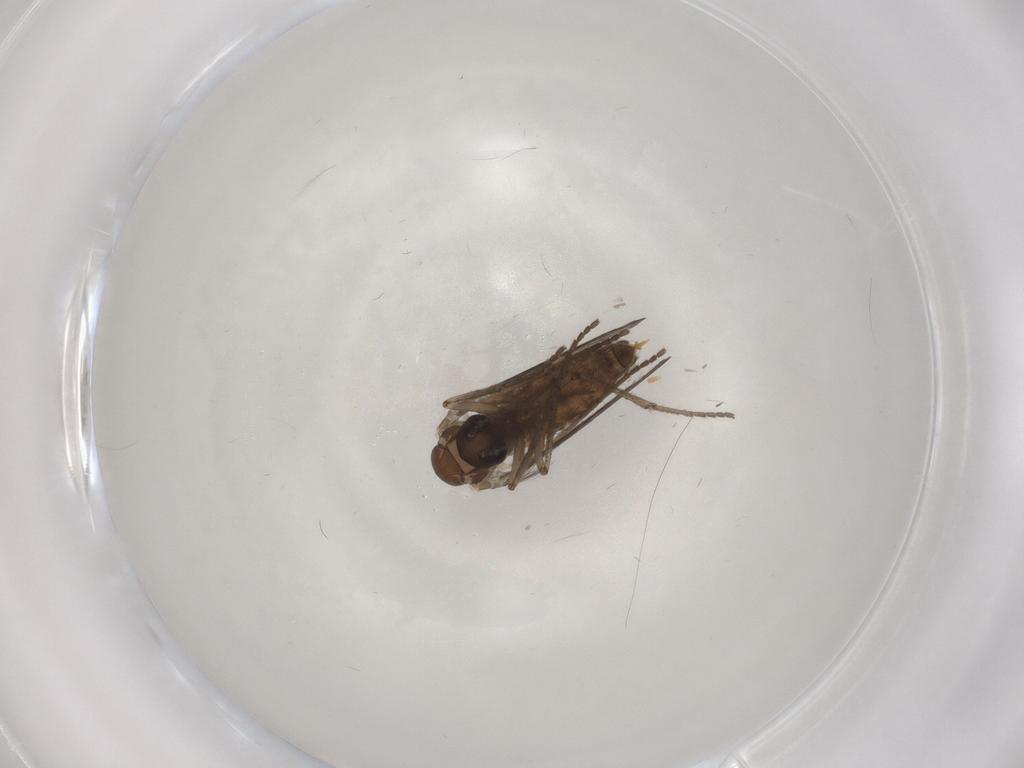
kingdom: Animalia
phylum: Arthropoda
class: Insecta
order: Diptera
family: Psychodidae
